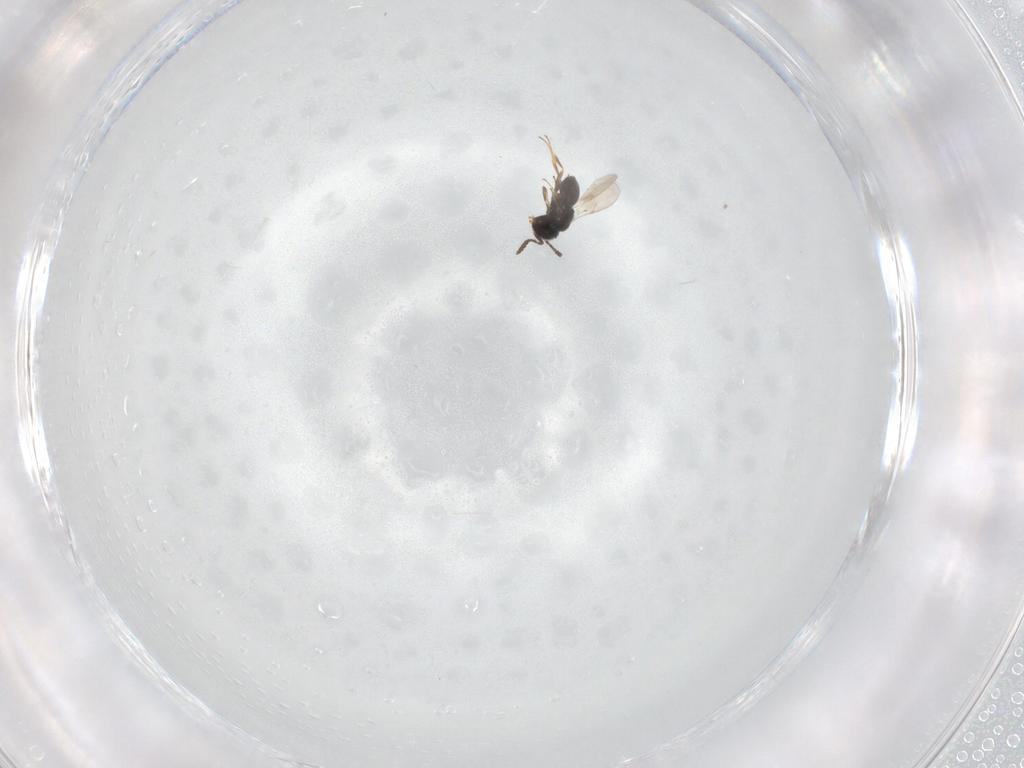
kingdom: Animalia
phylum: Arthropoda
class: Insecta
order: Hymenoptera
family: Scelionidae
